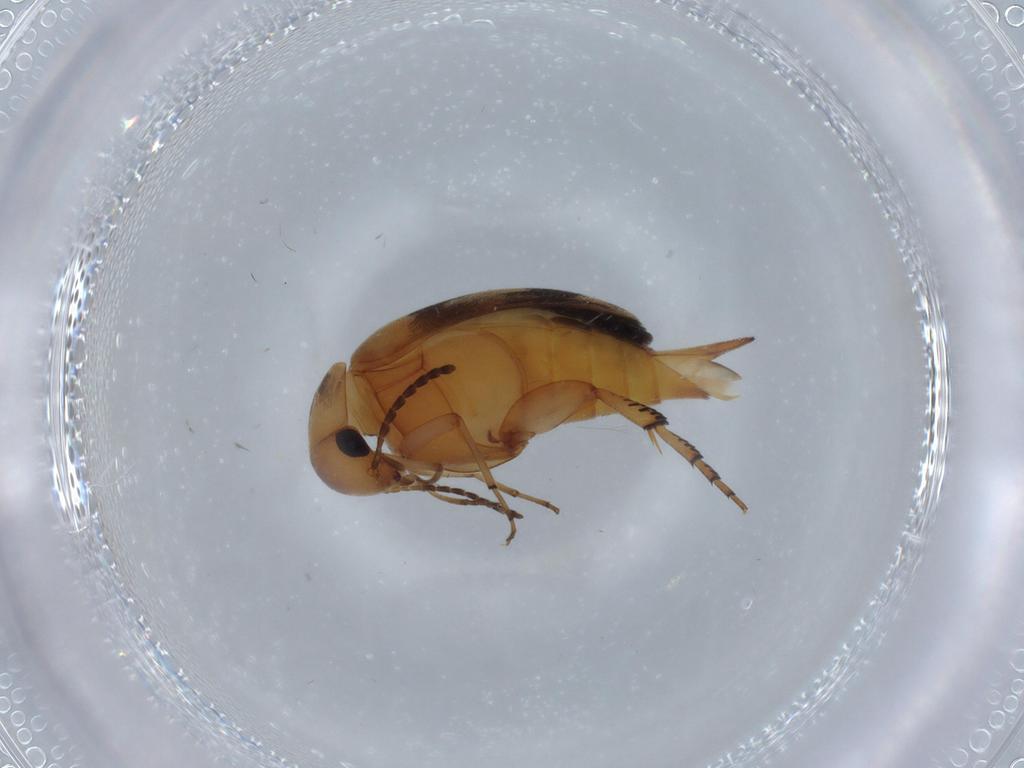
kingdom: Animalia
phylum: Arthropoda
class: Insecta
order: Coleoptera
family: Mordellidae
